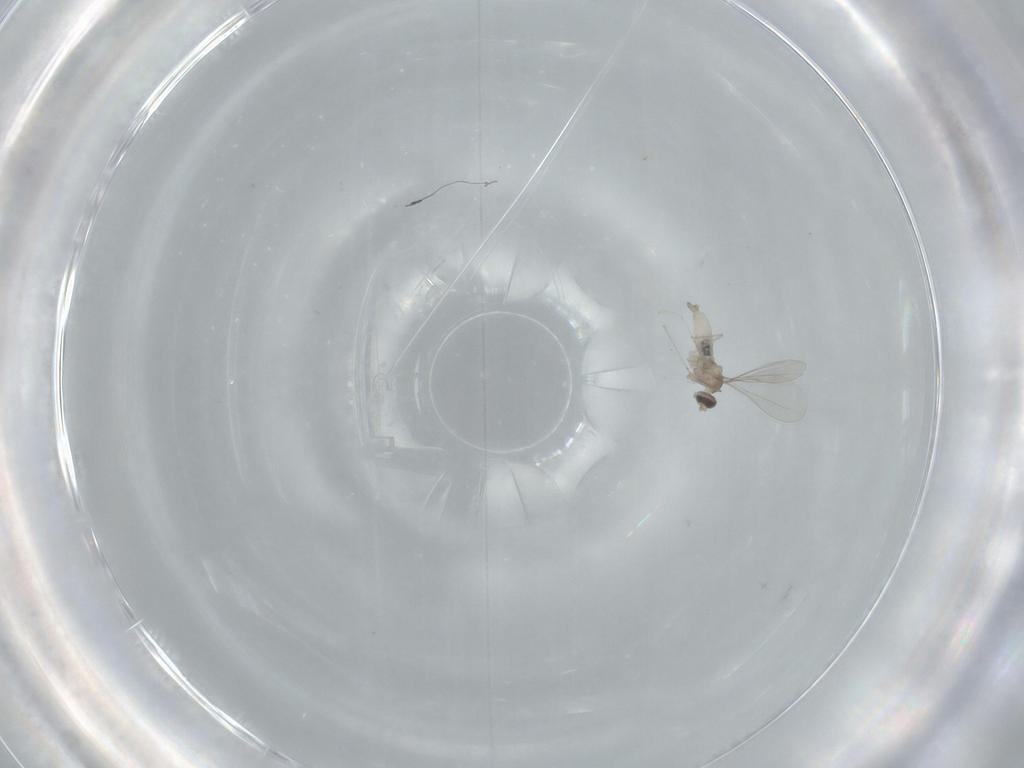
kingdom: Animalia
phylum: Arthropoda
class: Insecta
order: Diptera
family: Cecidomyiidae
